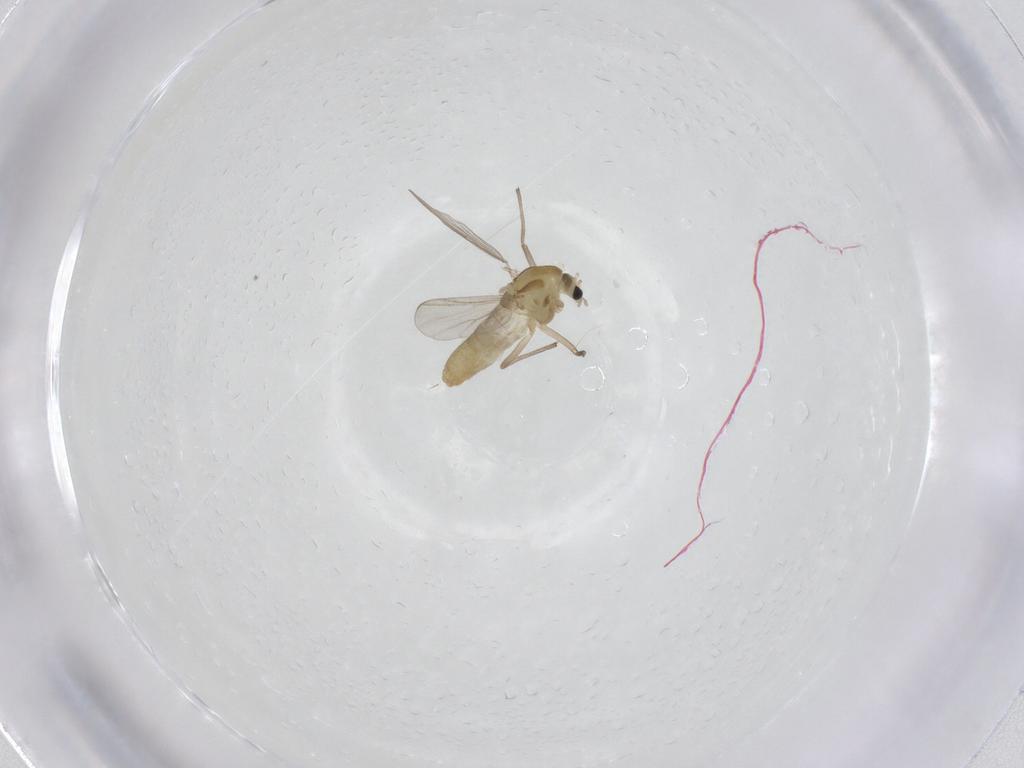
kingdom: Animalia
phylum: Arthropoda
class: Insecta
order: Diptera
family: Chironomidae
